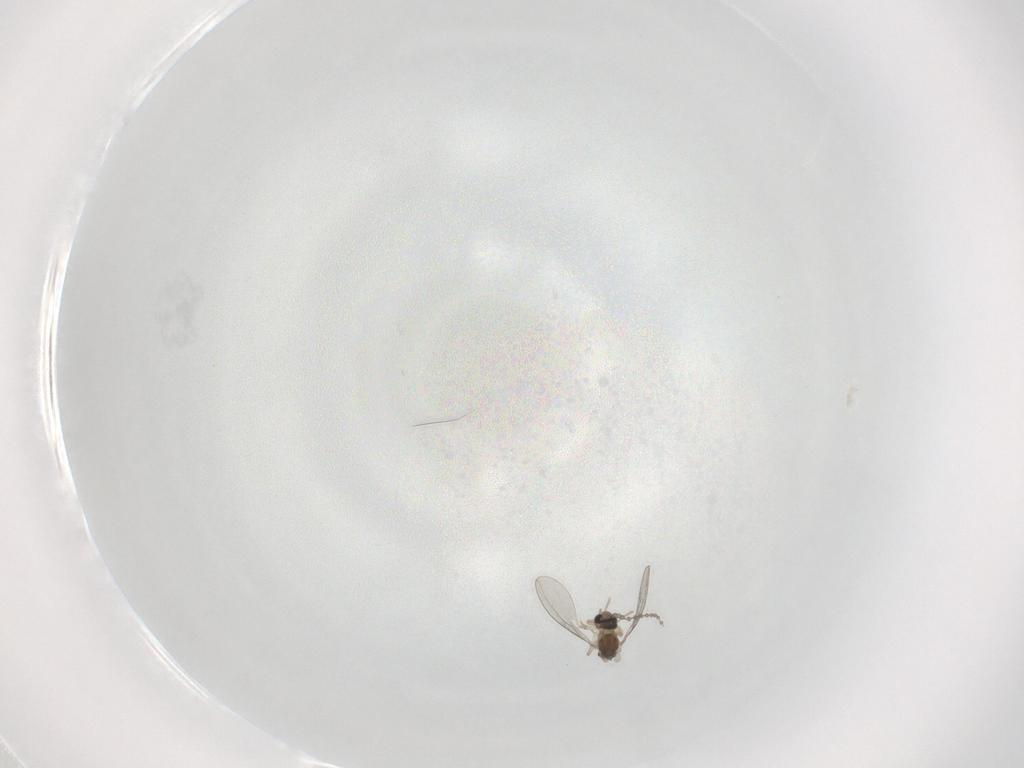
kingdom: Animalia
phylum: Arthropoda
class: Insecta
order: Diptera
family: Cecidomyiidae
